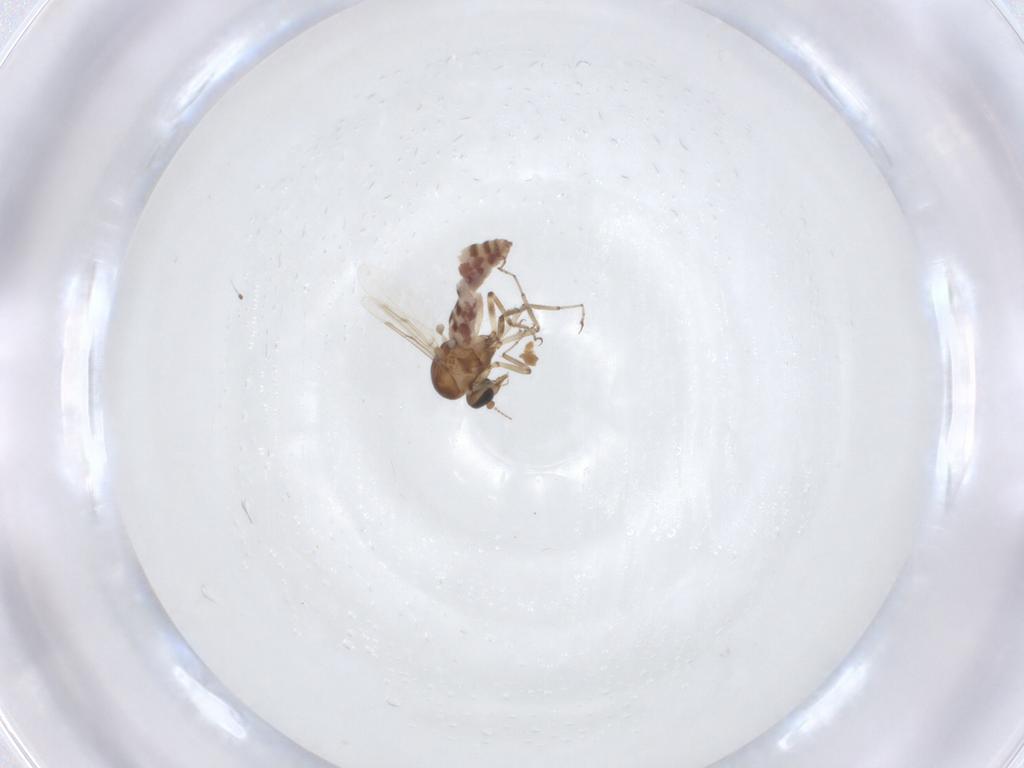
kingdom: Animalia
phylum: Arthropoda
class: Insecta
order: Diptera
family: Ceratopogonidae
